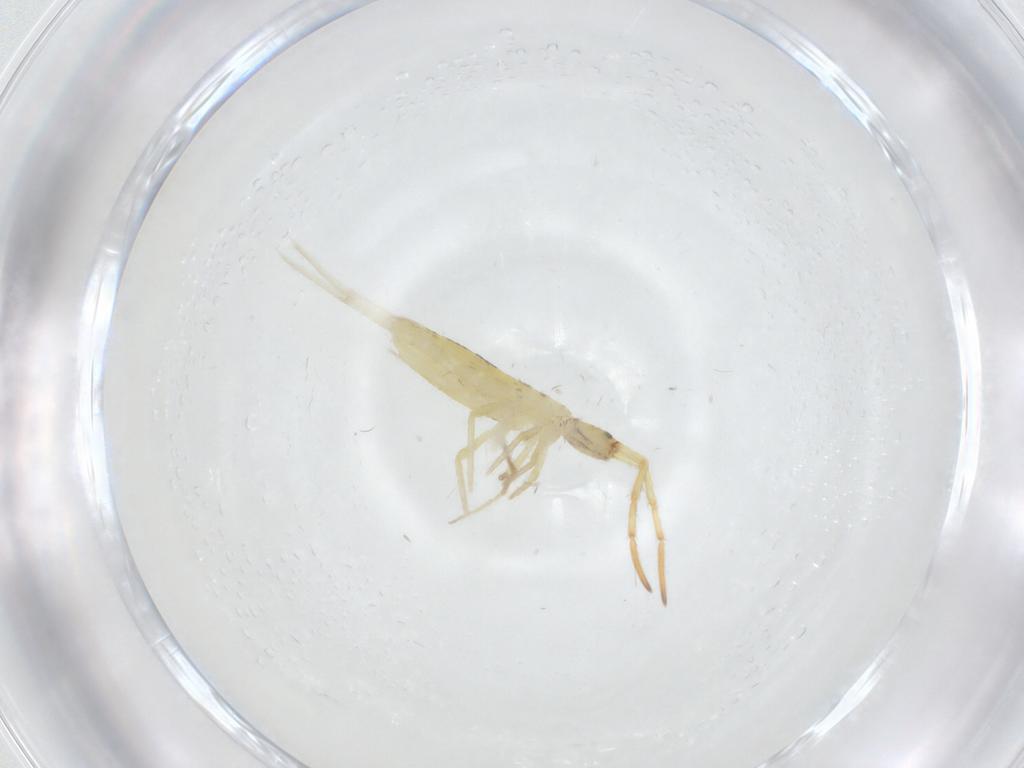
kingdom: Animalia
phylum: Arthropoda
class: Collembola
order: Entomobryomorpha
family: Entomobryidae
